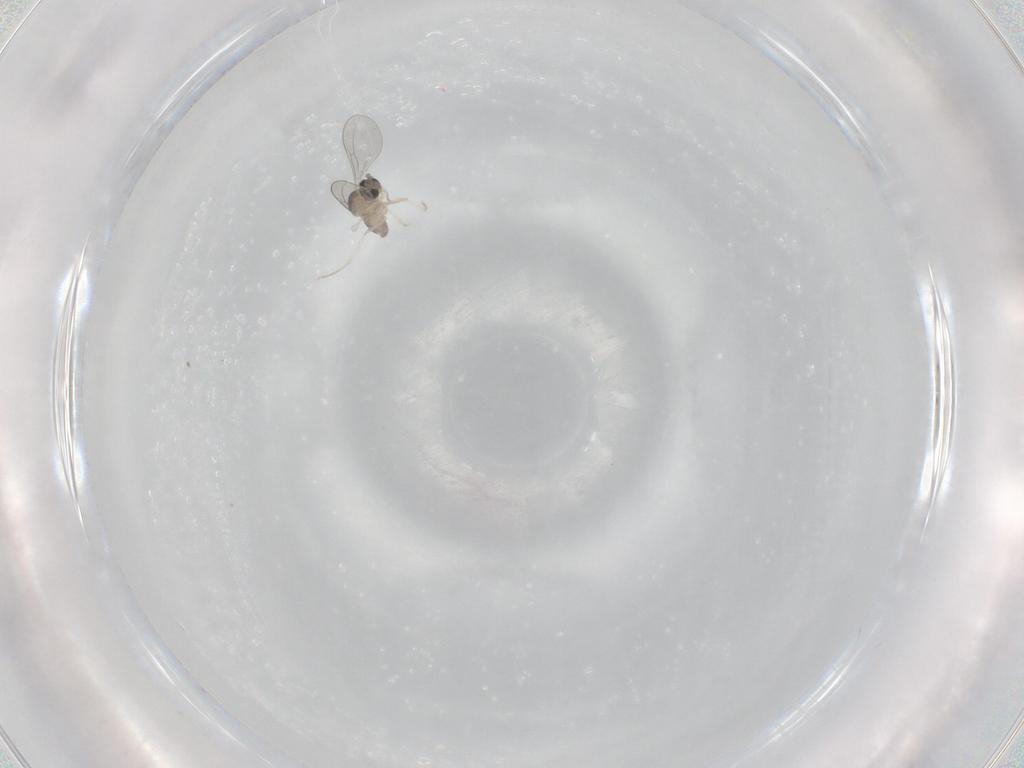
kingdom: Animalia
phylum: Arthropoda
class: Insecta
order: Diptera
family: Cecidomyiidae
